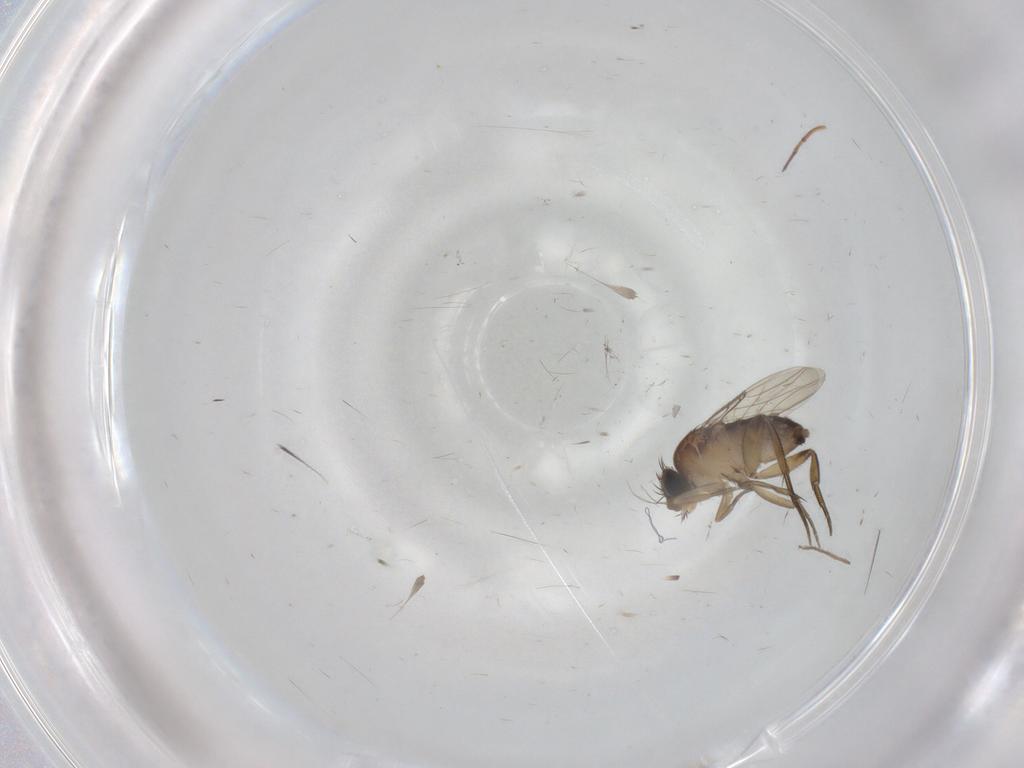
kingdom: Animalia
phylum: Arthropoda
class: Insecta
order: Diptera
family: Phoridae
